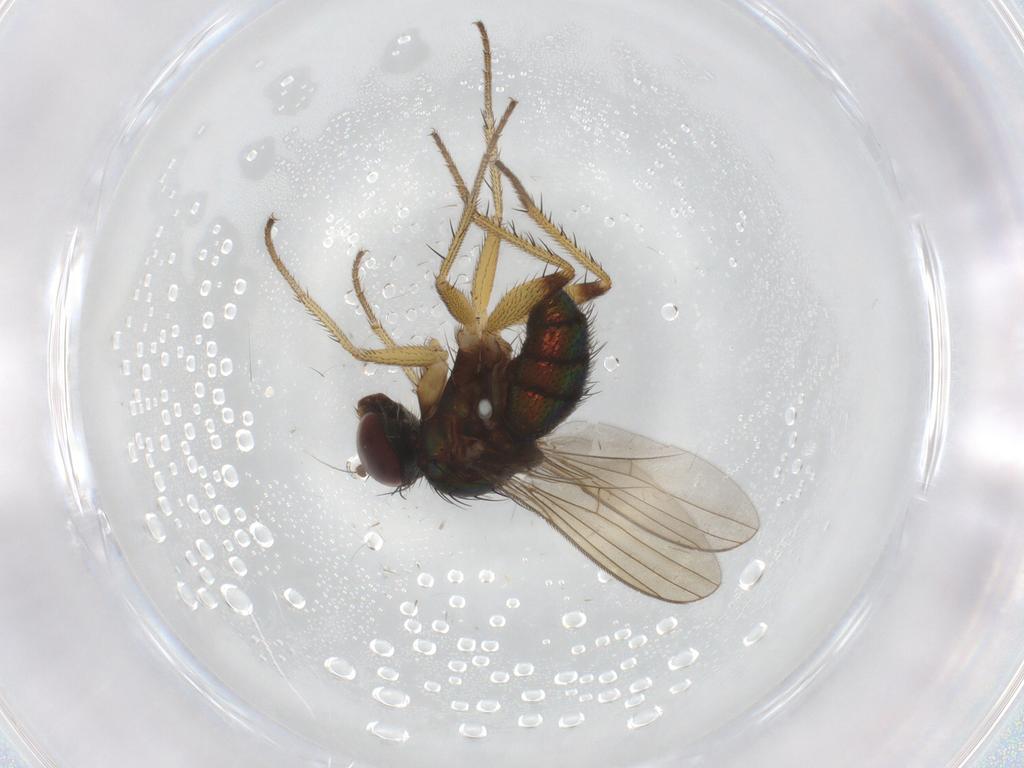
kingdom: Animalia
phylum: Arthropoda
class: Insecta
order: Diptera
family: Dolichopodidae
